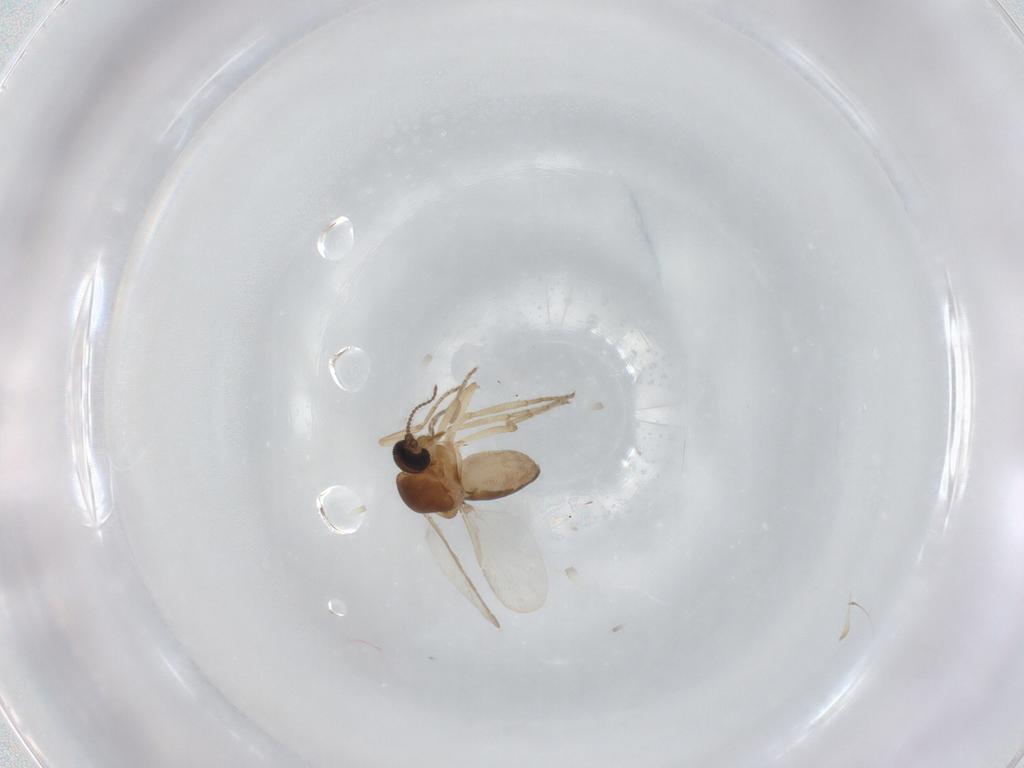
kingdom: Animalia
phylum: Arthropoda
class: Insecta
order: Diptera
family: Ceratopogonidae
